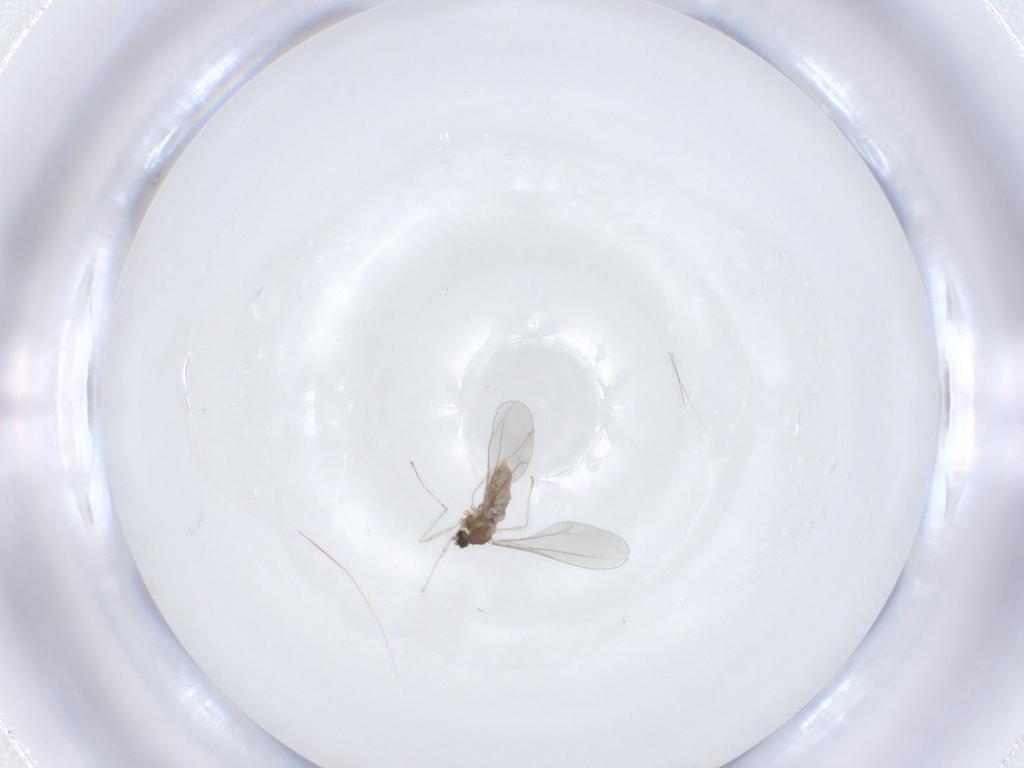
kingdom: Animalia
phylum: Arthropoda
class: Insecta
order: Diptera
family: Cecidomyiidae
